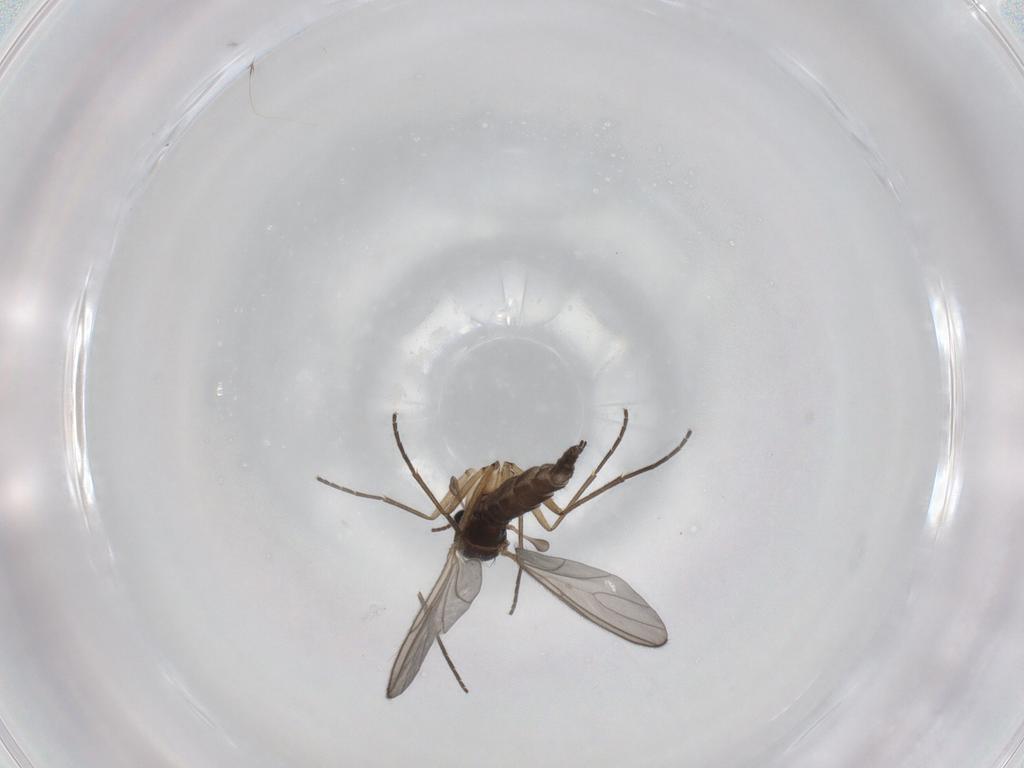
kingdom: Animalia
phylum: Arthropoda
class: Insecta
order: Diptera
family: Sciaridae
